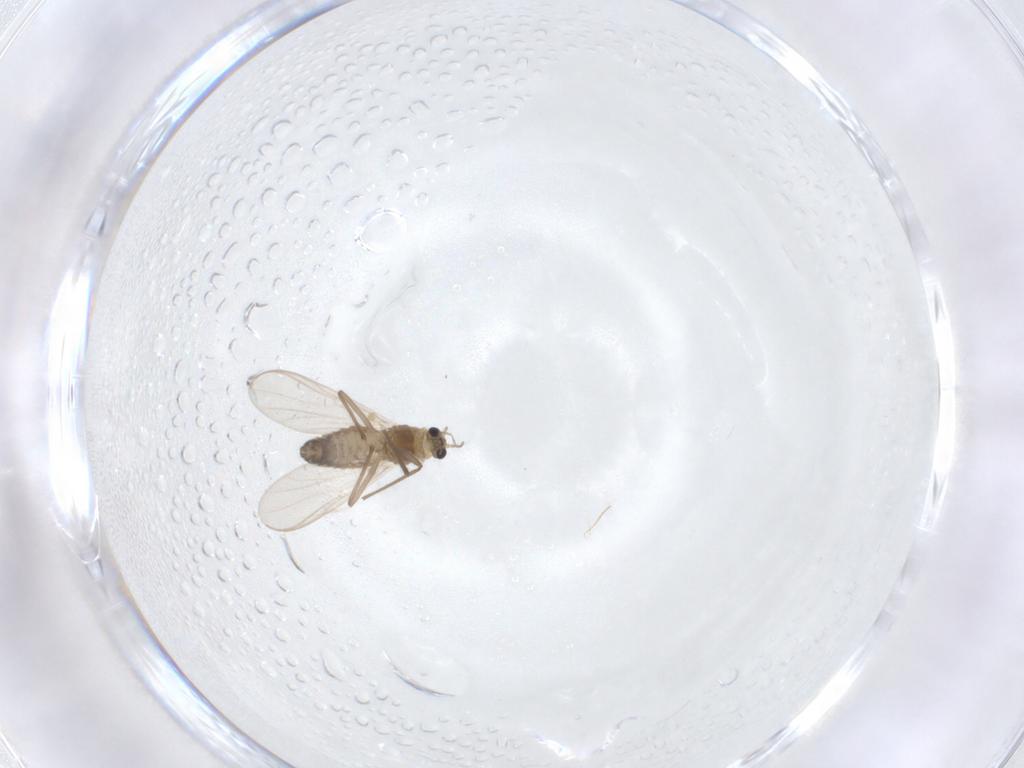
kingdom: Animalia
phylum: Arthropoda
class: Insecta
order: Diptera
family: Chironomidae
